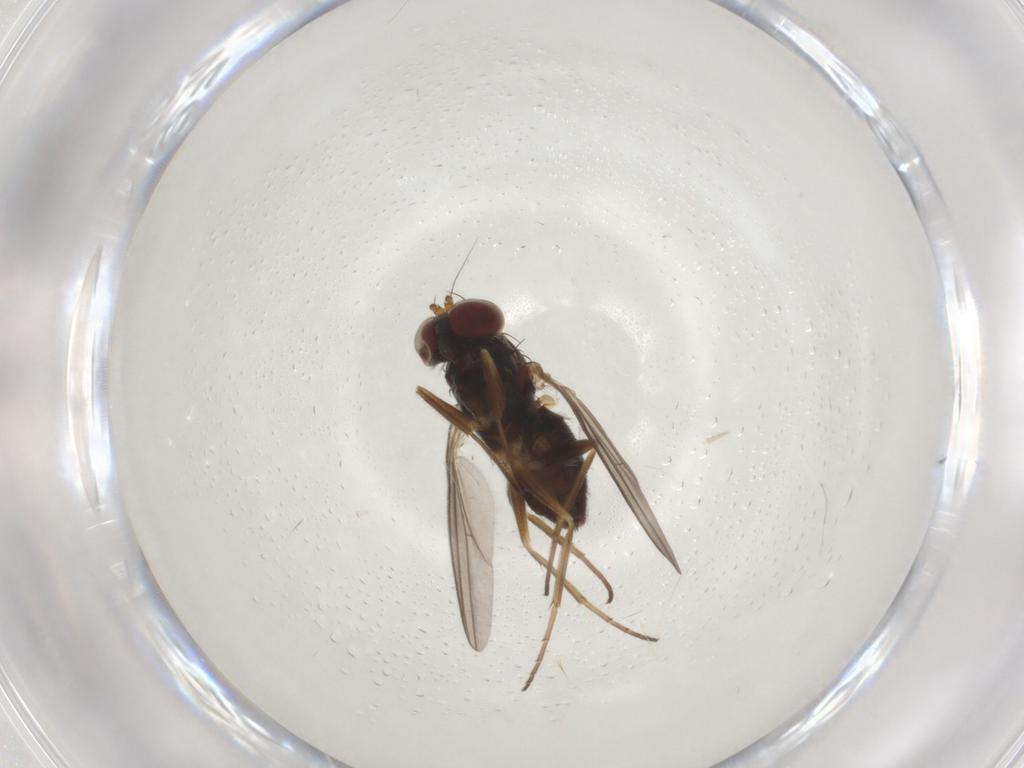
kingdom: Animalia
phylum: Arthropoda
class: Insecta
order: Diptera
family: Dolichopodidae
